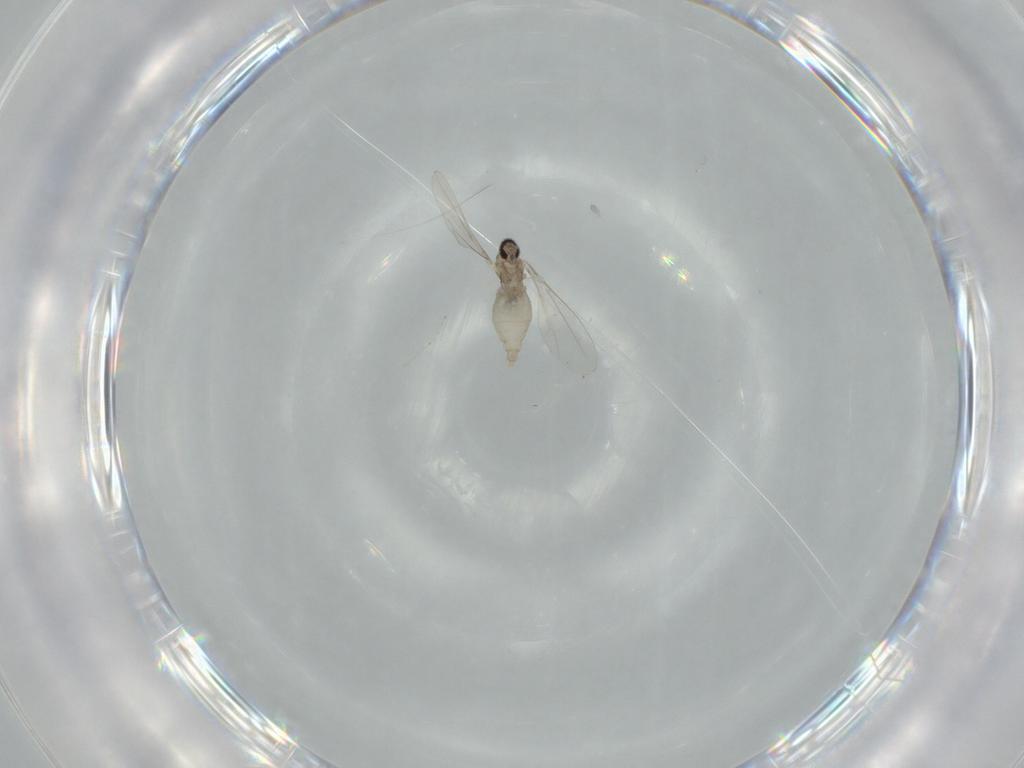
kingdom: Animalia
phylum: Arthropoda
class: Insecta
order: Diptera
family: Cecidomyiidae
